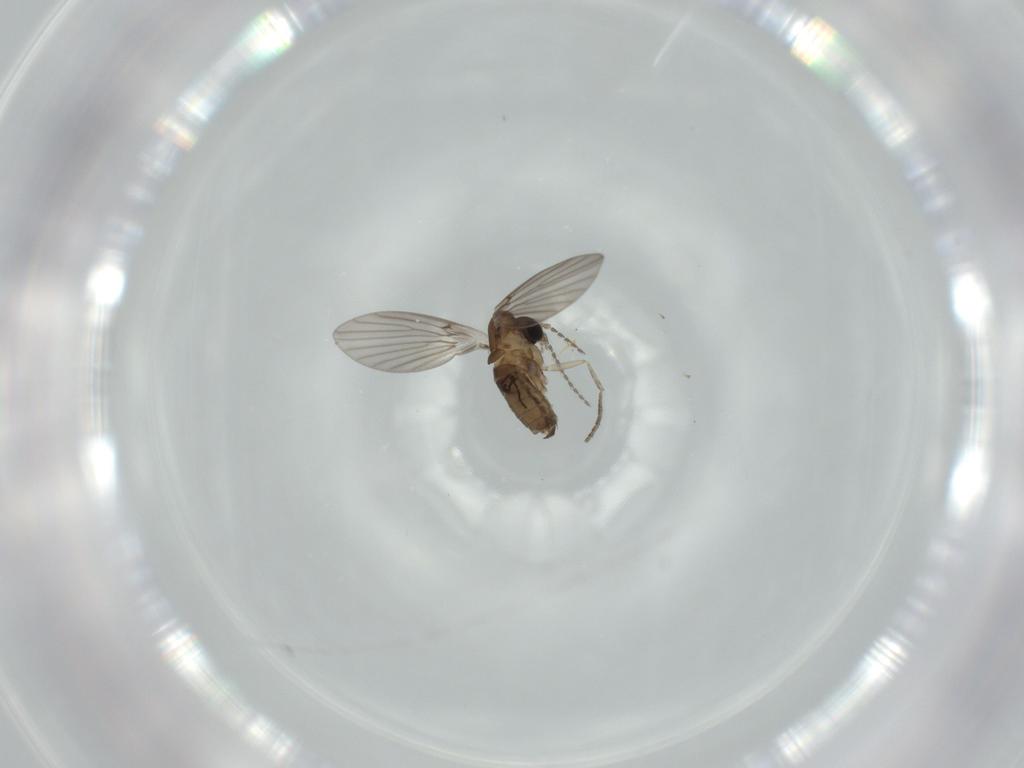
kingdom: Animalia
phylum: Arthropoda
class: Insecta
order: Diptera
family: Psychodidae
